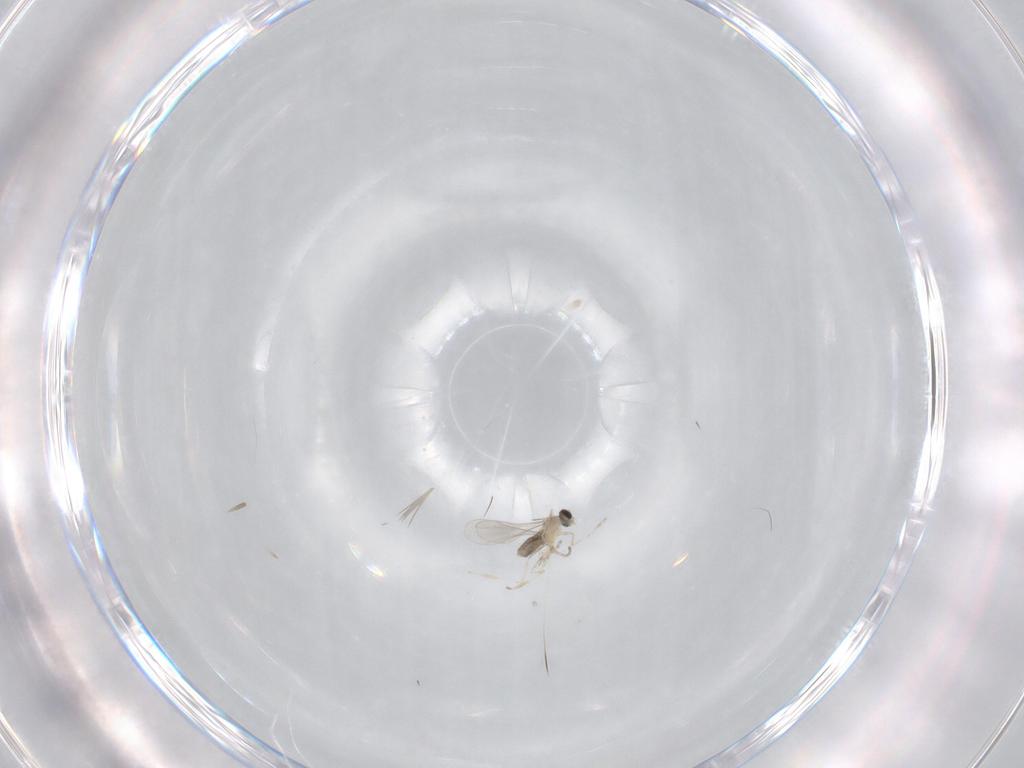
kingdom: Animalia
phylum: Arthropoda
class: Insecta
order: Diptera
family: Cecidomyiidae
